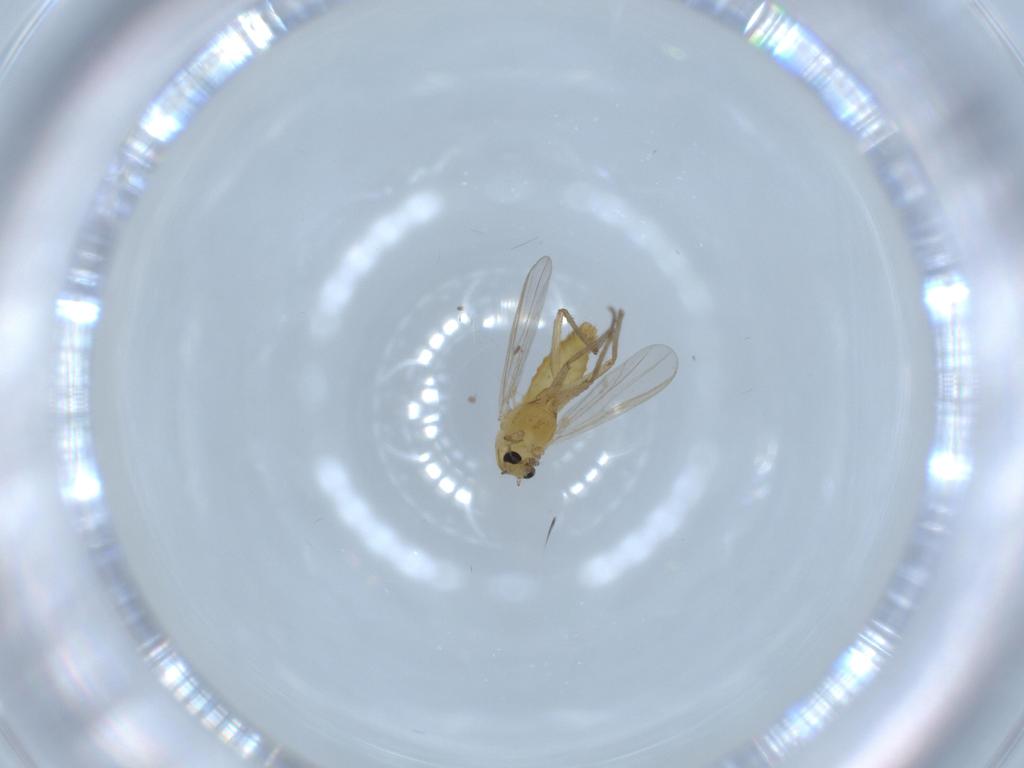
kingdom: Animalia
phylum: Arthropoda
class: Insecta
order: Diptera
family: Chironomidae
